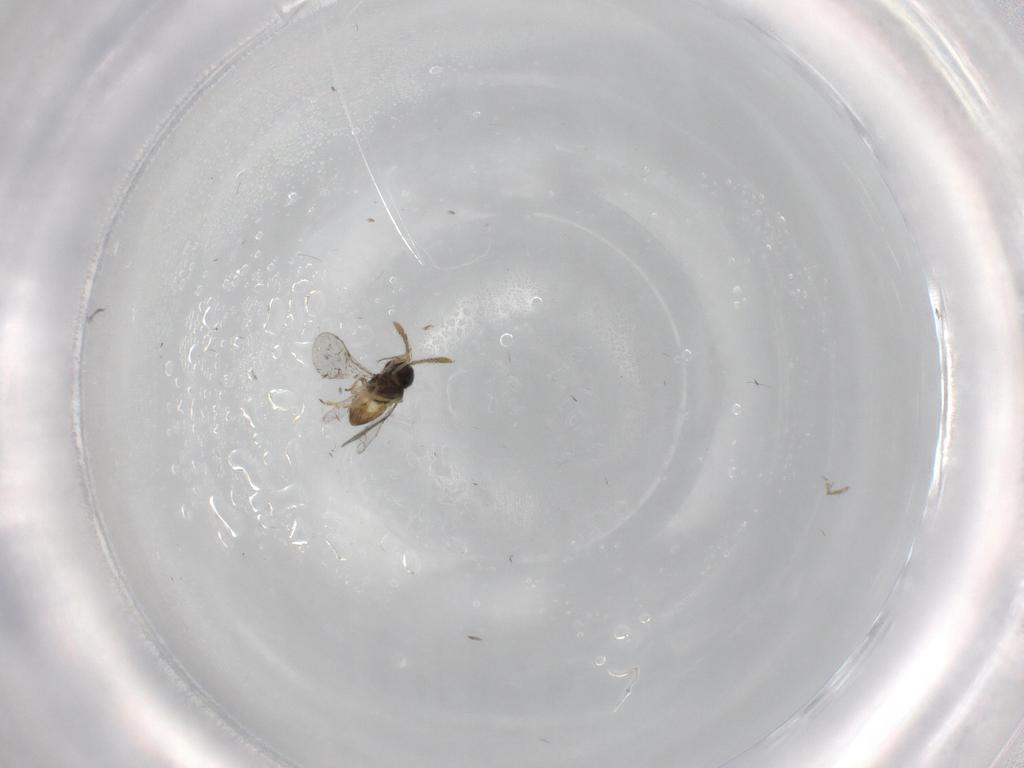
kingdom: Animalia
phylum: Arthropoda
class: Insecta
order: Hymenoptera
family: Encyrtidae
